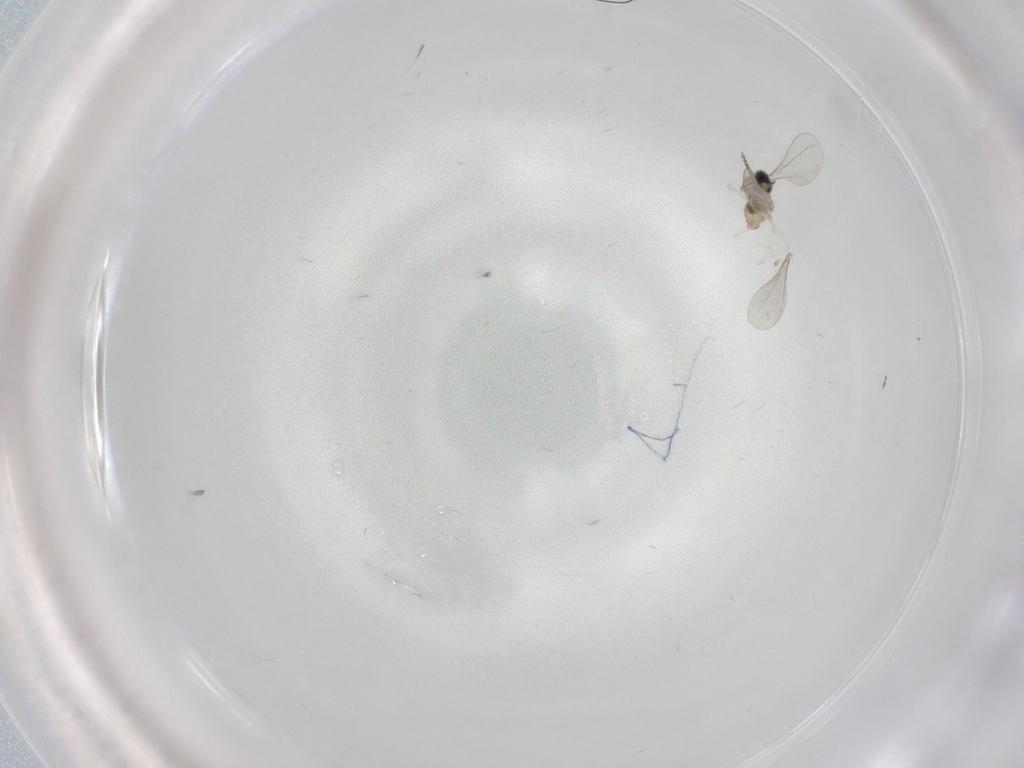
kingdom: Animalia
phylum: Arthropoda
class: Insecta
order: Diptera
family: Cecidomyiidae
